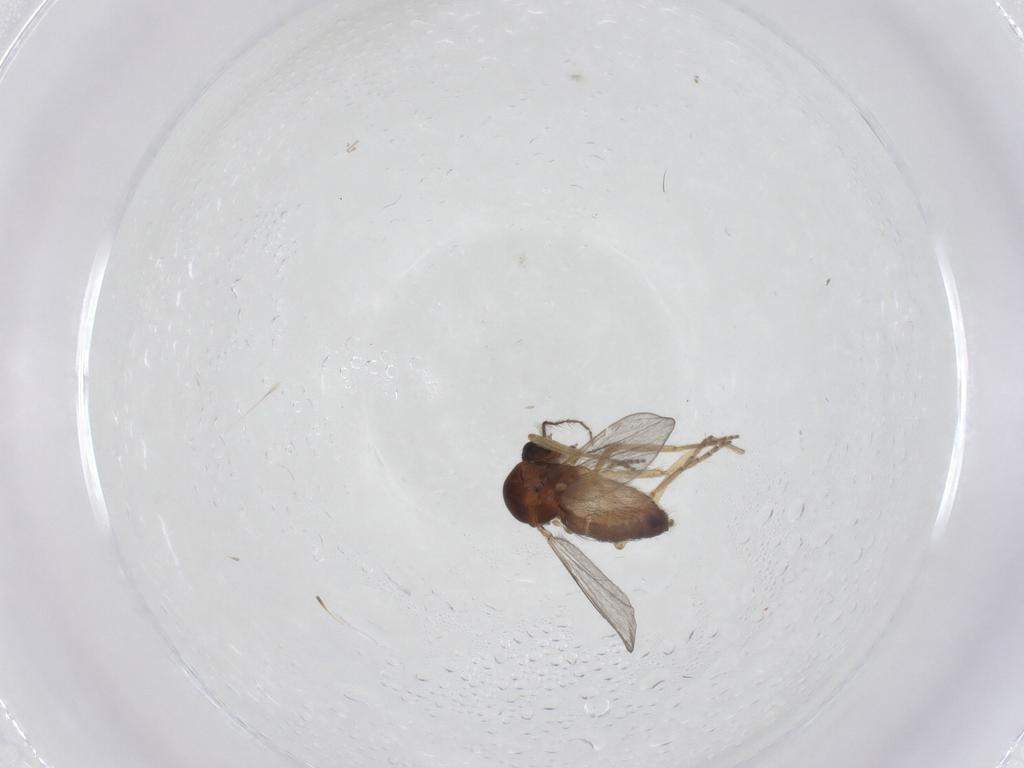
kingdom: Animalia
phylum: Arthropoda
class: Insecta
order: Diptera
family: Ceratopogonidae
